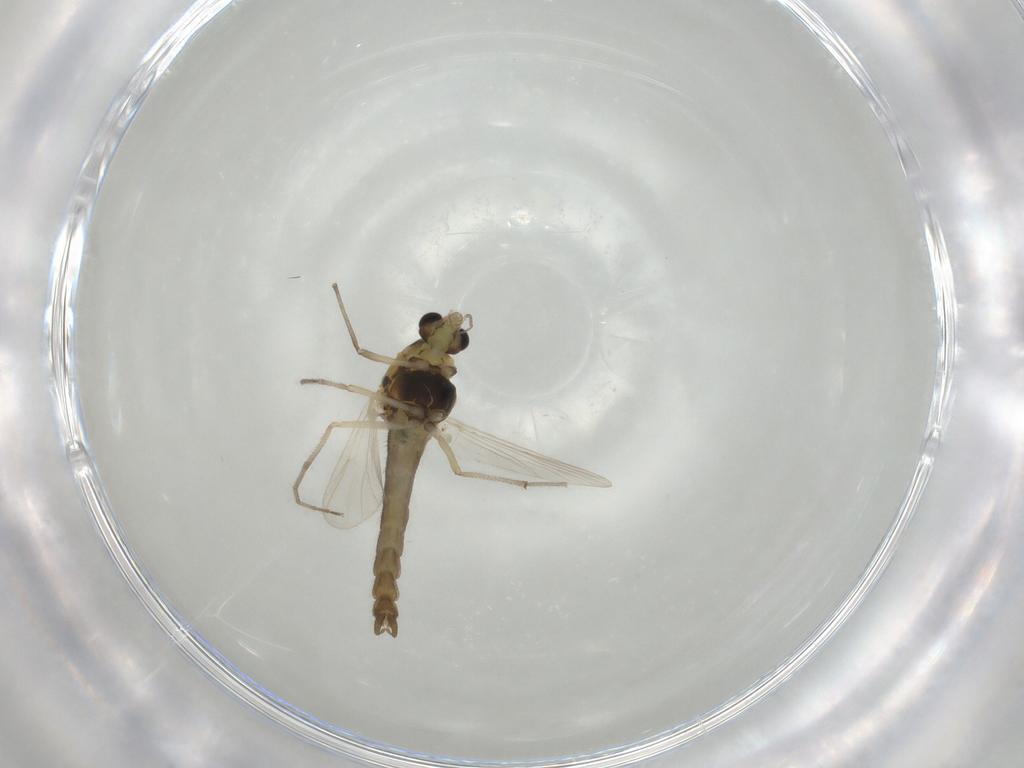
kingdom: Animalia
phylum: Arthropoda
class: Insecta
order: Diptera
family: Chironomidae
